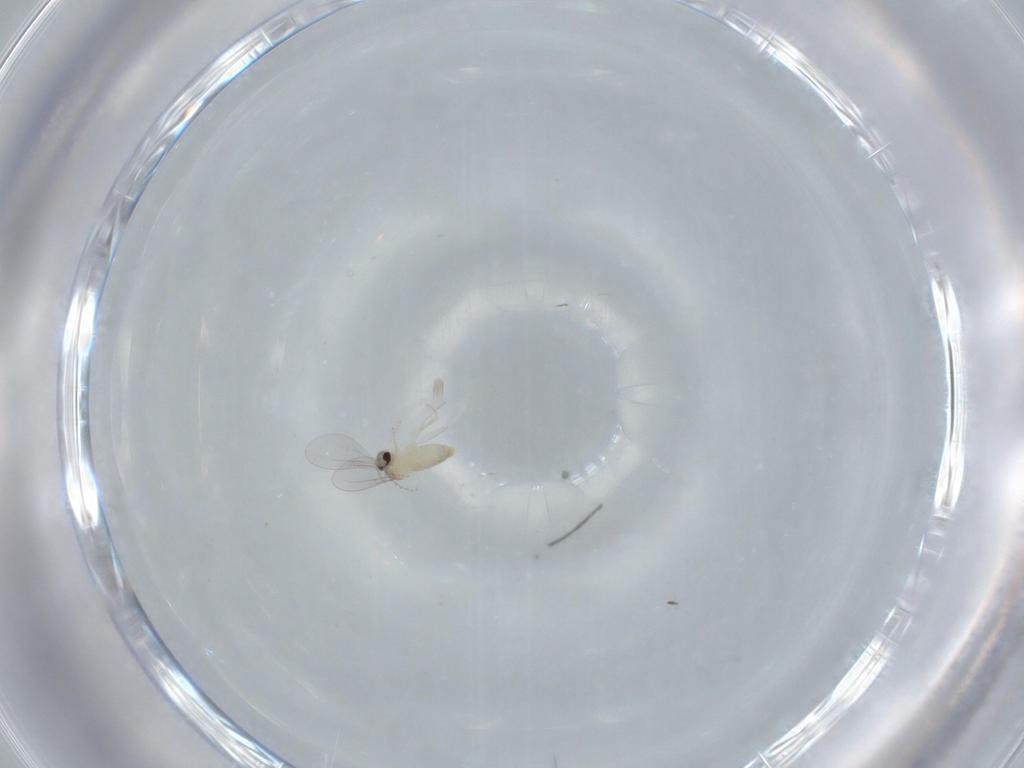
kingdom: Animalia
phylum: Arthropoda
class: Insecta
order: Diptera
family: Cecidomyiidae
